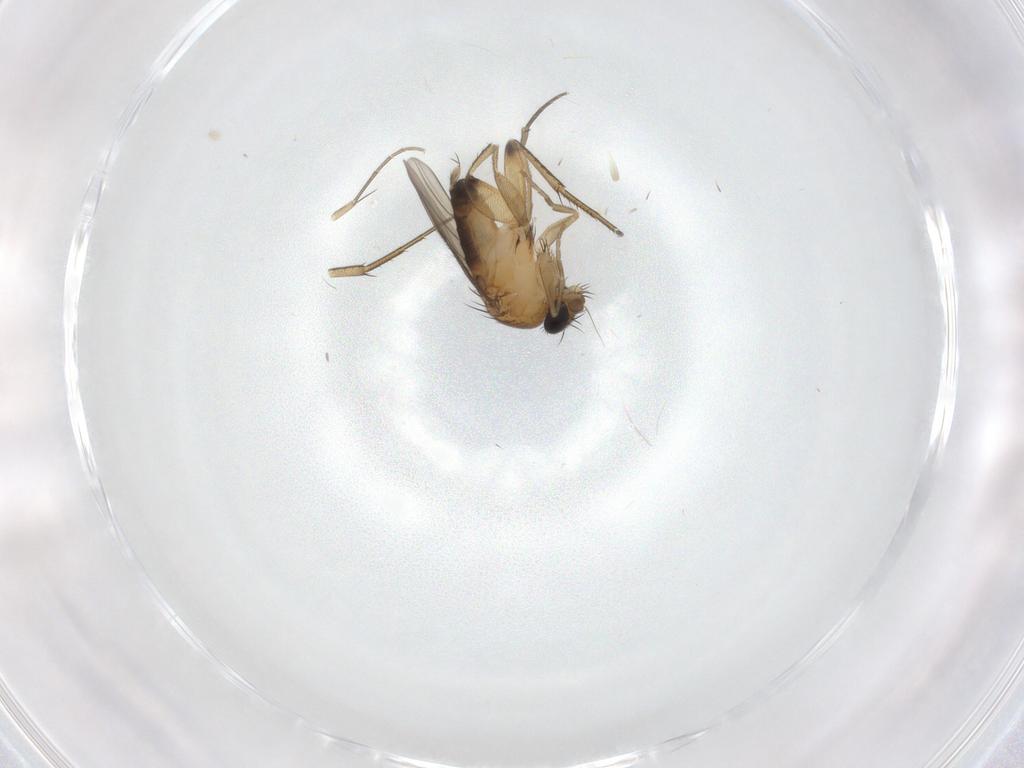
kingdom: Animalia
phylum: Arthropoda
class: Insecta
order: Diptera
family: Phoridae
